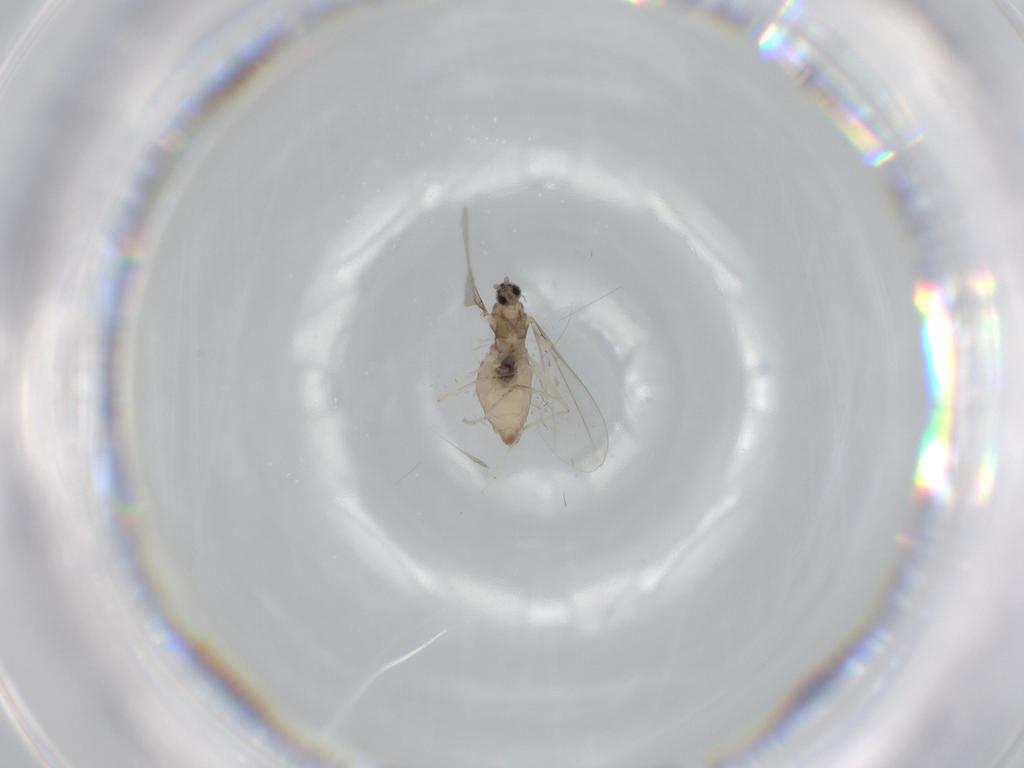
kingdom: Animalia
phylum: Arthropoda
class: Insecta
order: Diptera
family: Cecidomyiidae
